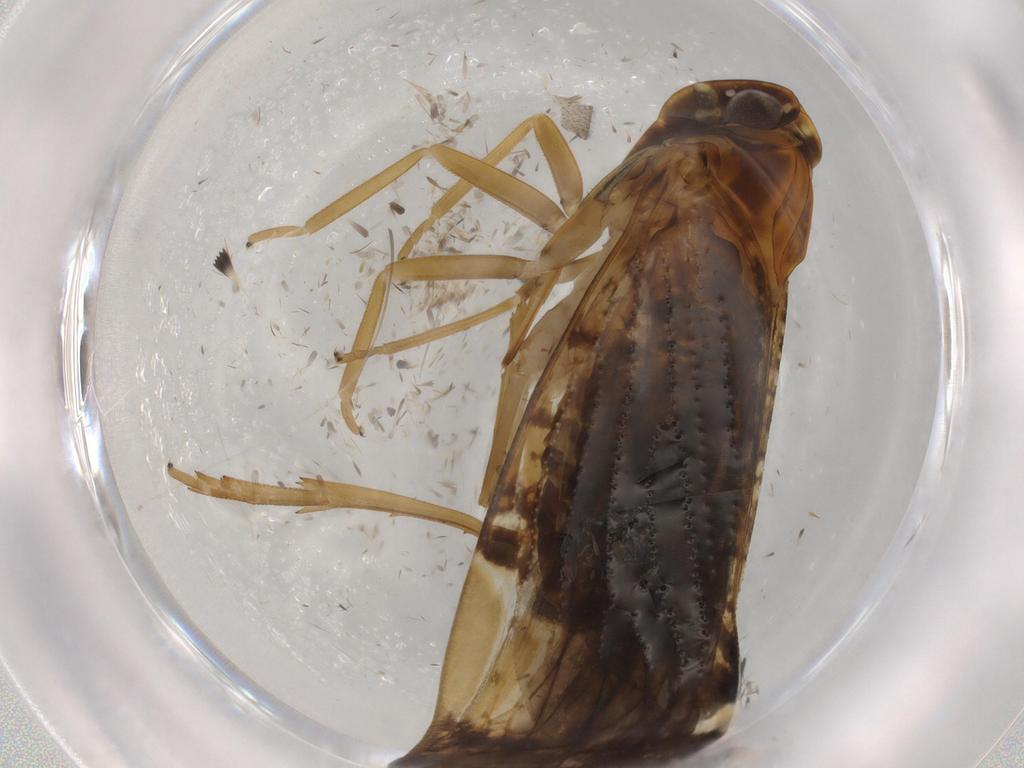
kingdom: Animalia
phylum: Arthropoda
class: Insecta
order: Hemiptera
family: Cixiidae
